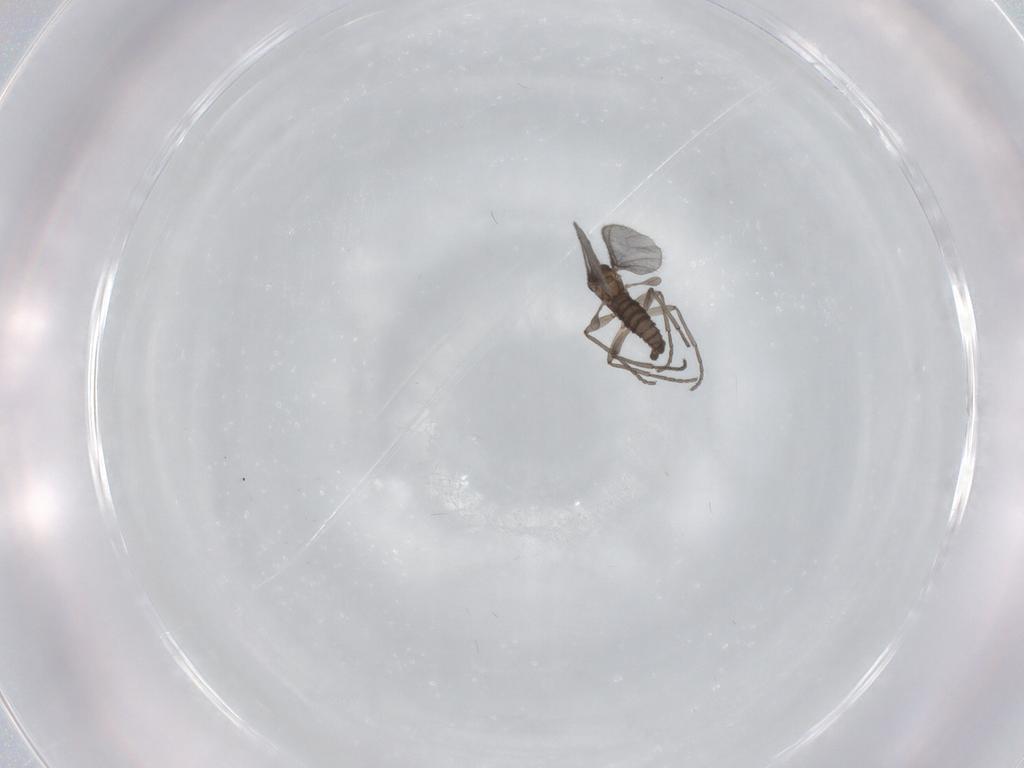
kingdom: Animalia
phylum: Arthropoda
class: Insecta
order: Diptera
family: Sciaridae
